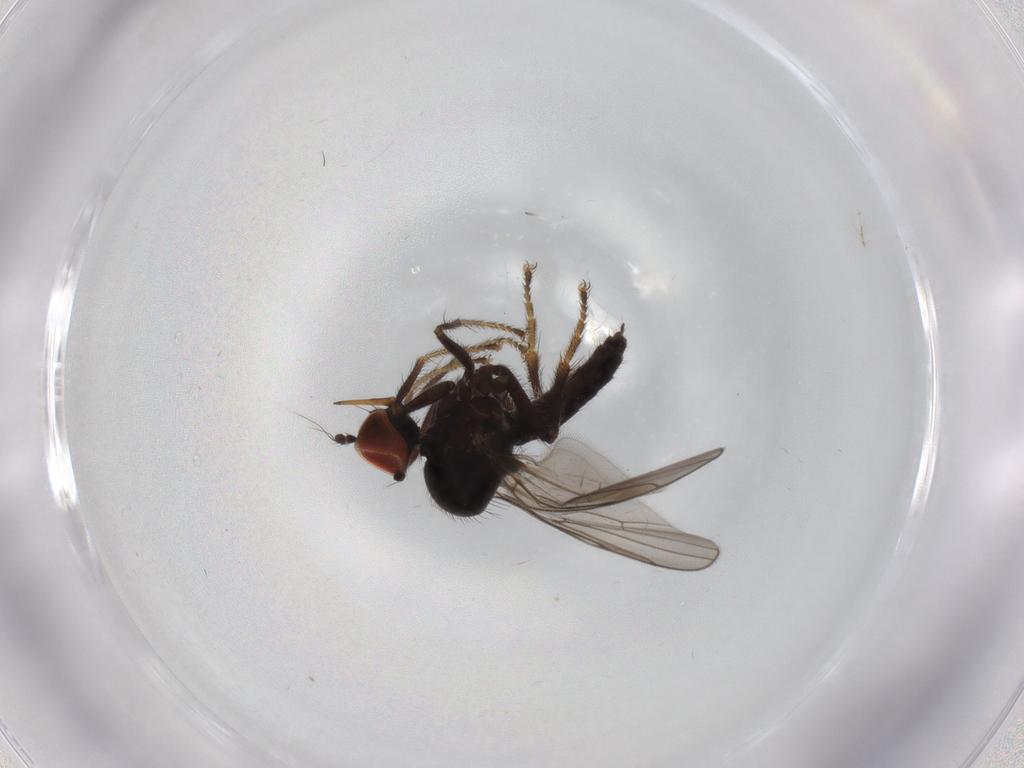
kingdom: Animalia
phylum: Arthropoda
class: Insecta
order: Diptera
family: Hybotidae
